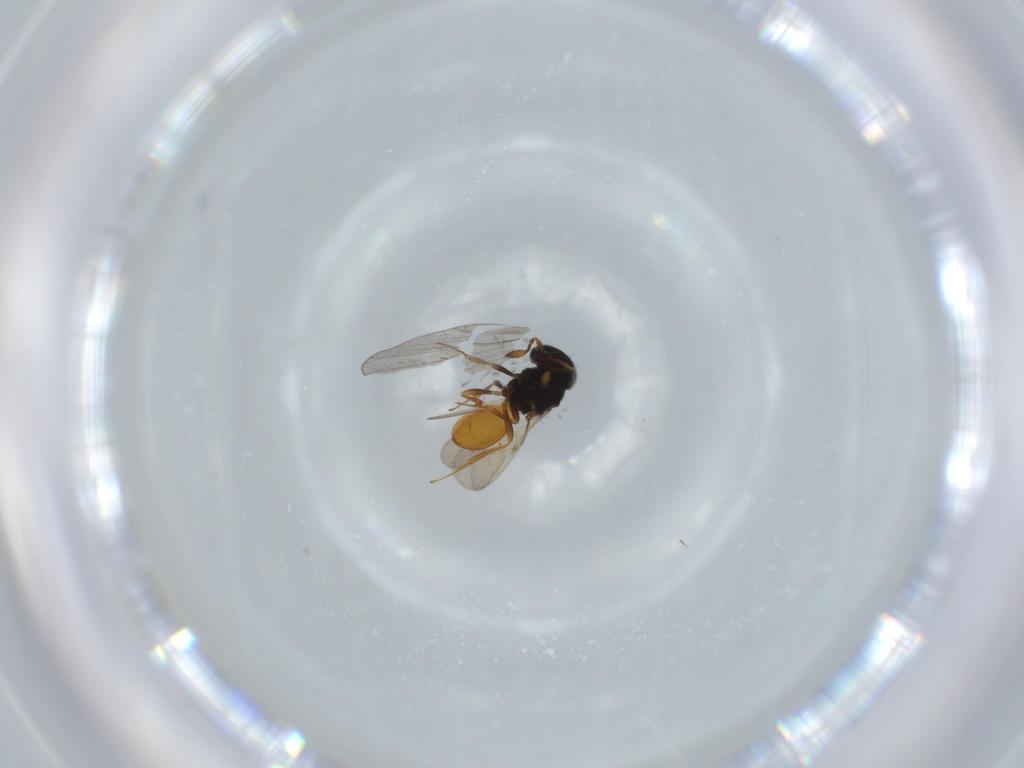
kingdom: Animalia
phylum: Arthropoda
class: Insecta
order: Hymenoptera
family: Scelionidae
